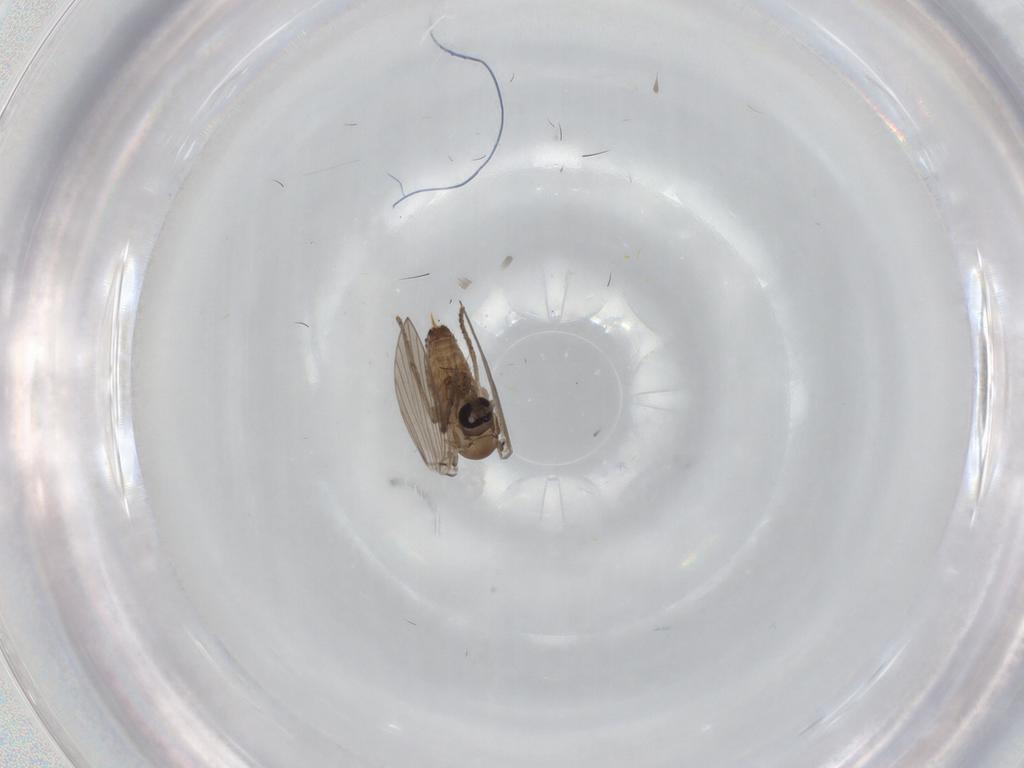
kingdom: Animalia
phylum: Arthropoda
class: Insecta
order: Diptera
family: Psychodidae
